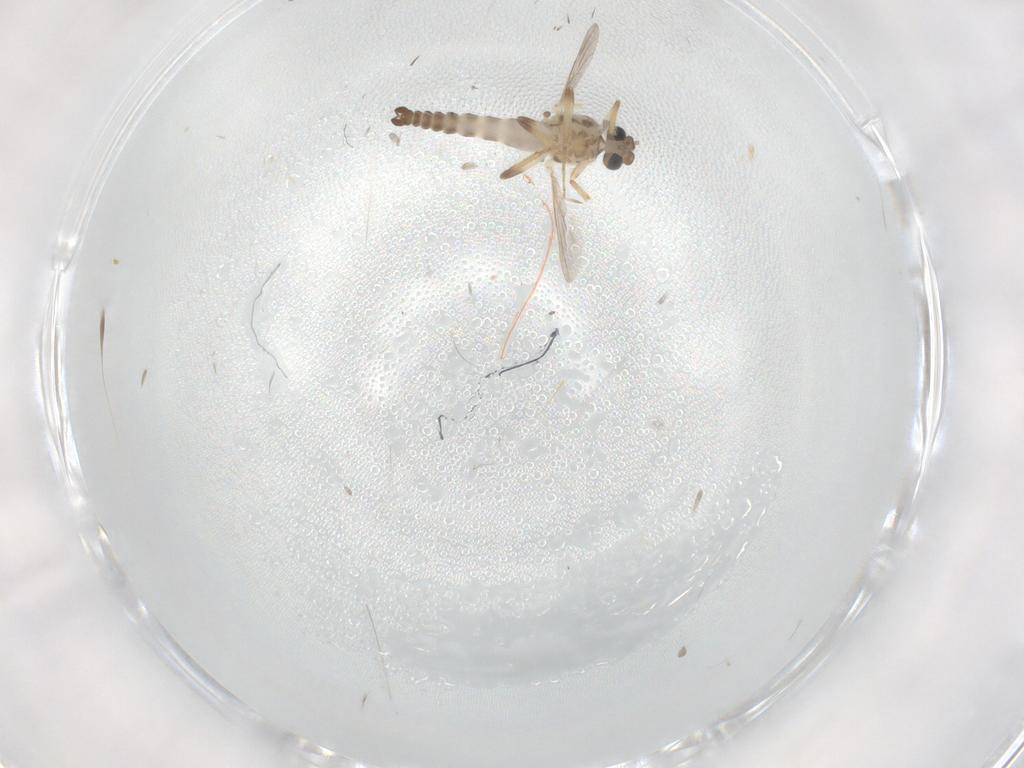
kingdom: Animalia
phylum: Arthropoda
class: Insecta
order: Diptera
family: Ceratopogonidae
